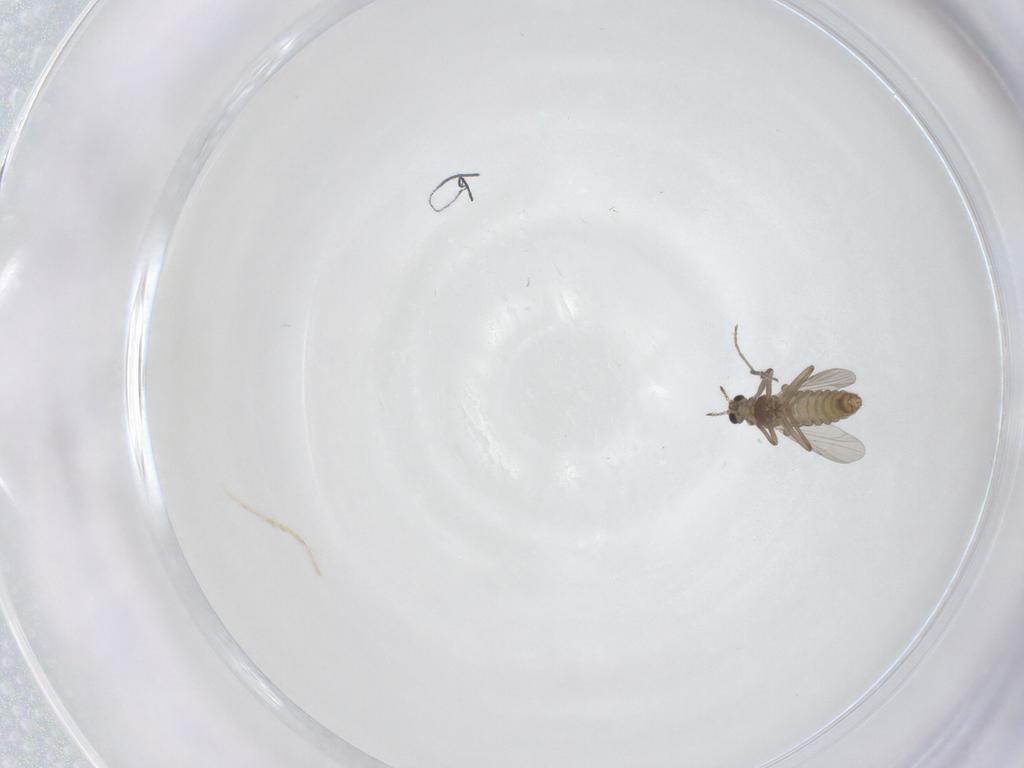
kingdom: Animalia
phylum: Arthropoda
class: Insecta
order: Diptera
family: Chironomidae
